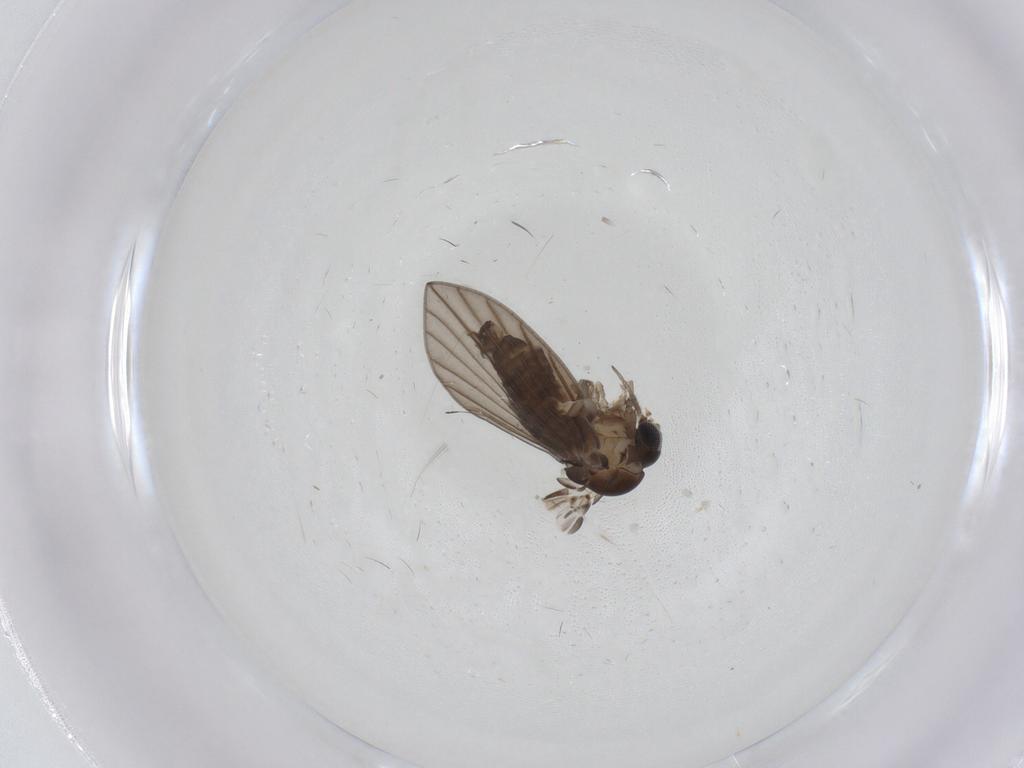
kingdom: Animalia
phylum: Arthropoda
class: Insecta
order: Diptera
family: Psychodidae
